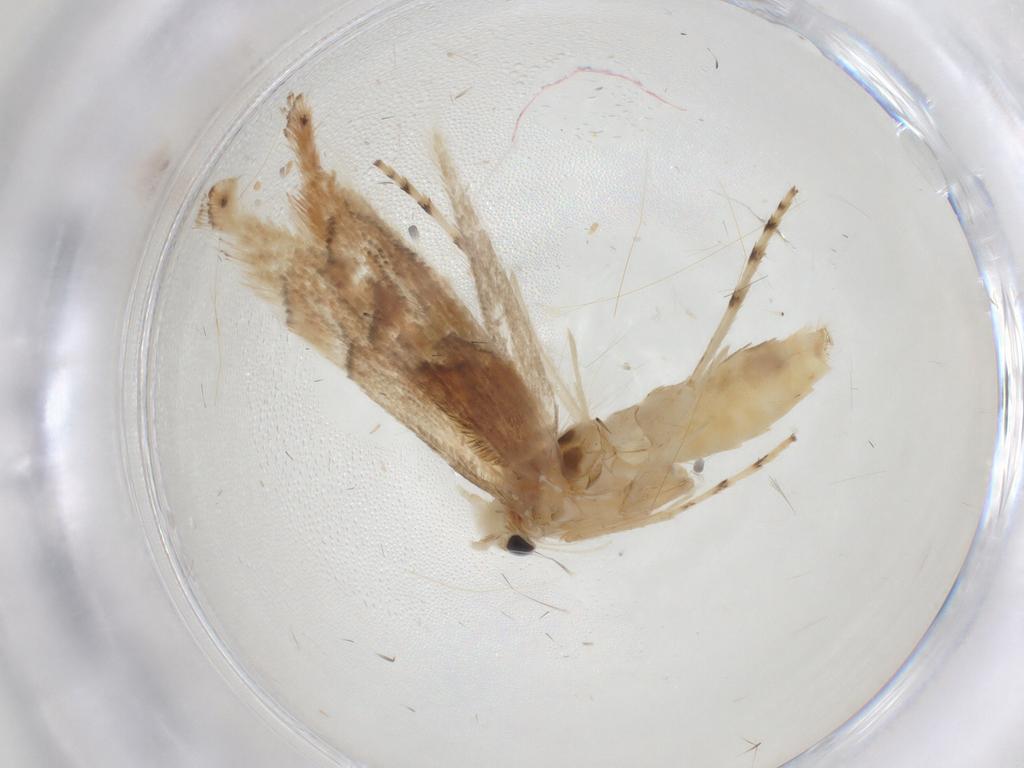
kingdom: Animalia
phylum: Arthropoda
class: Insecta
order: Lepidoptera
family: Gracillariidae
